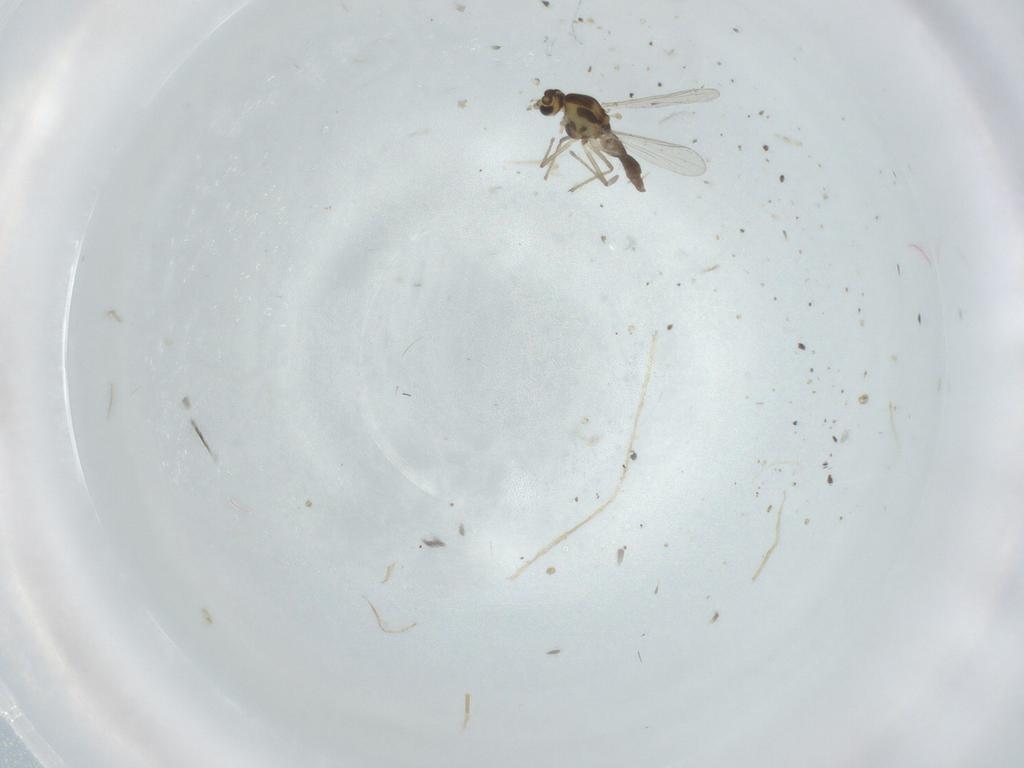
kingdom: Animalia
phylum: Arthropoda
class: Insecta
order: Diptera
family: Chironomidae
